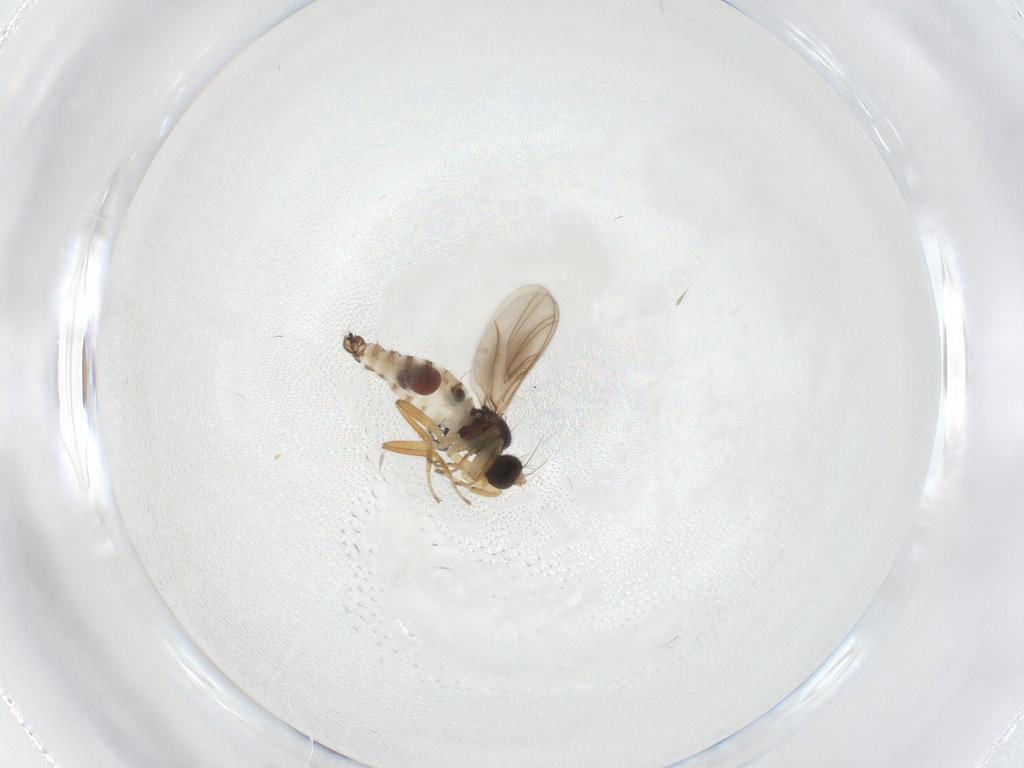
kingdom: Animalia
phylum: Arthropoda
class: Insecta
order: Diptera
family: Hybotidae
